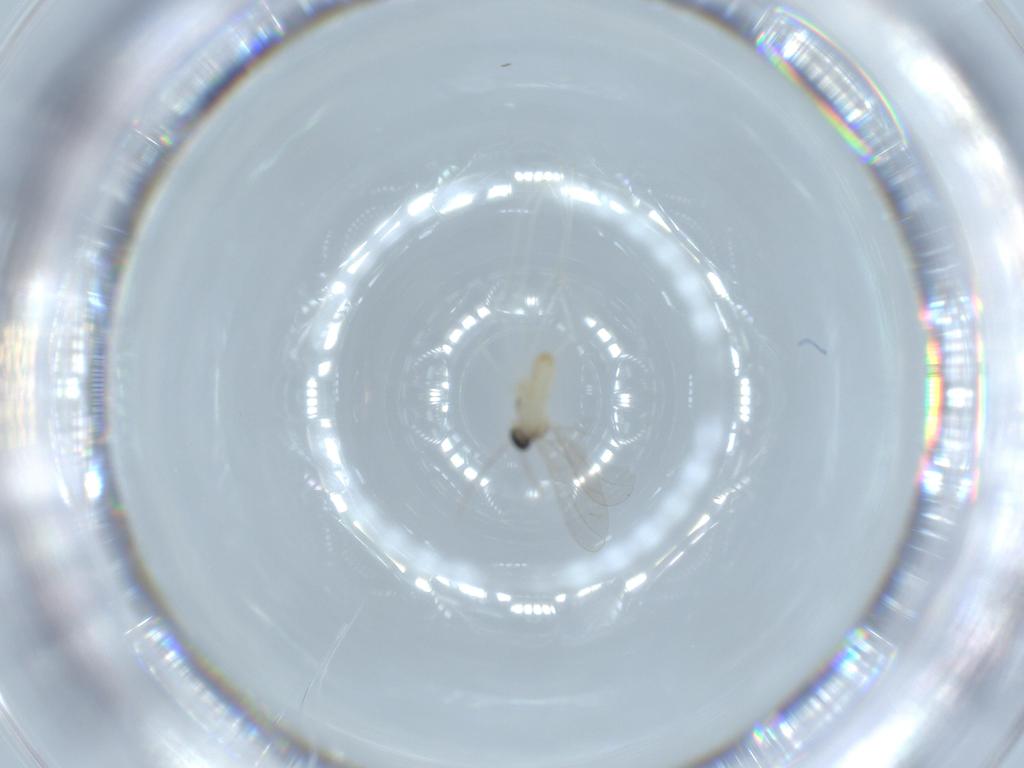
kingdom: Animalia
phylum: Arthropoda
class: Insecta
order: Diptera
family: Cecidomyiidae
